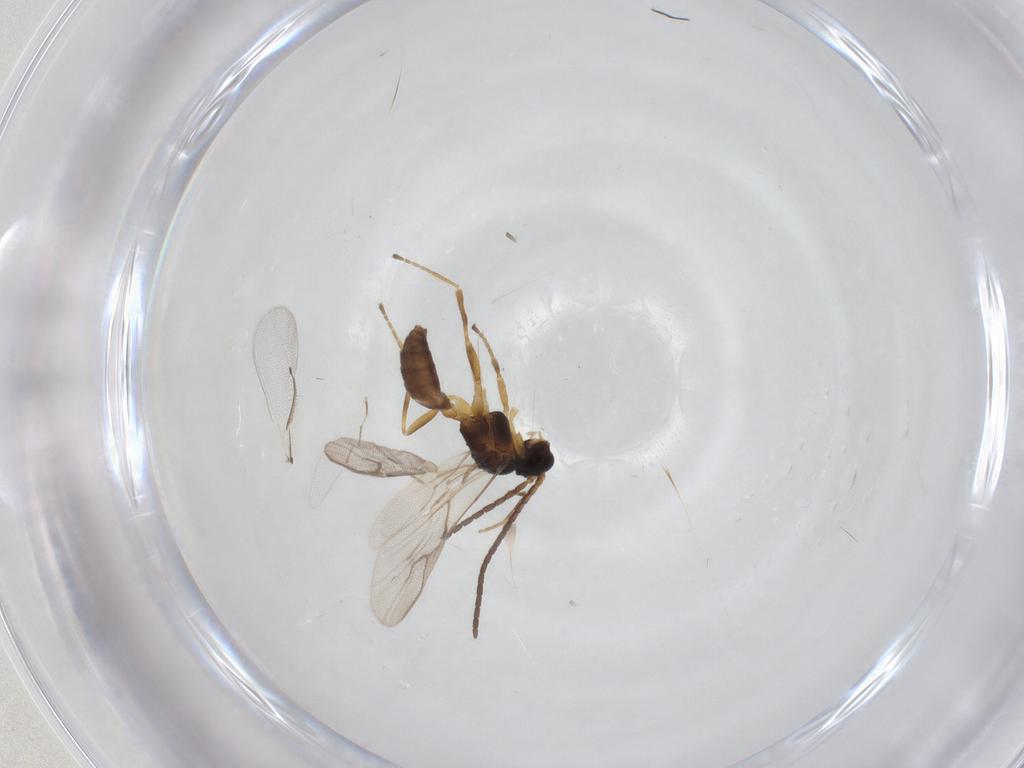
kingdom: Animalia
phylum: Arthropoda
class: Insecta
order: Hymenoptera
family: Braconidae
